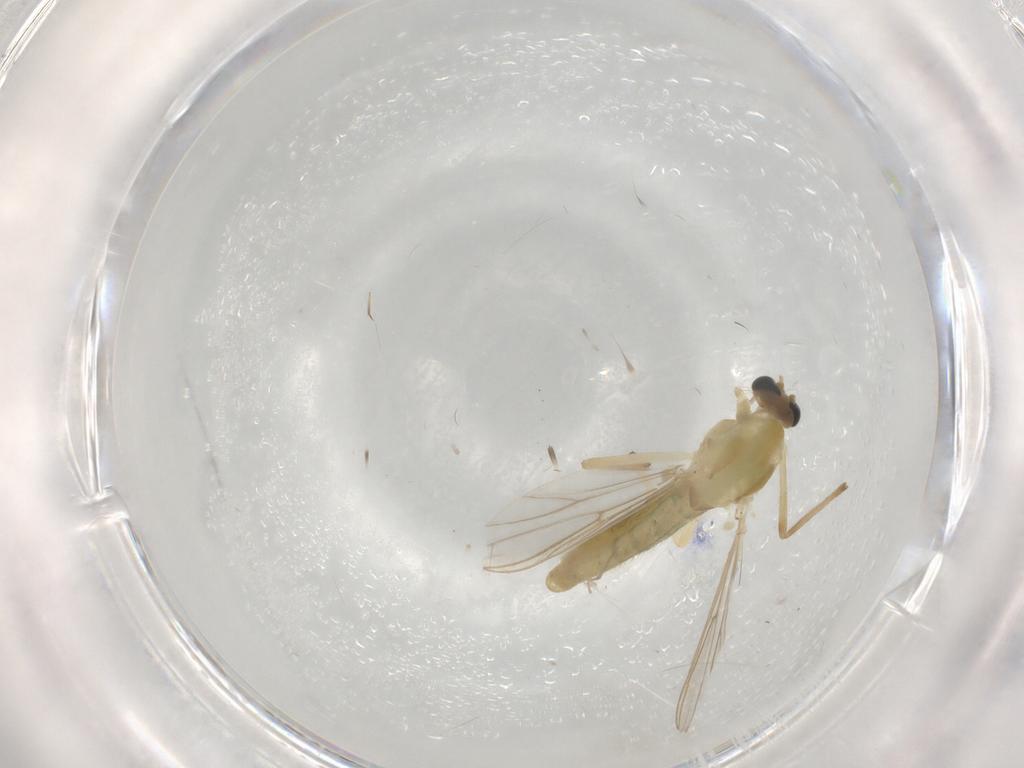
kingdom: Animalia
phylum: Arthropoda
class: Insecta
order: Diptera
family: Chironomidae
